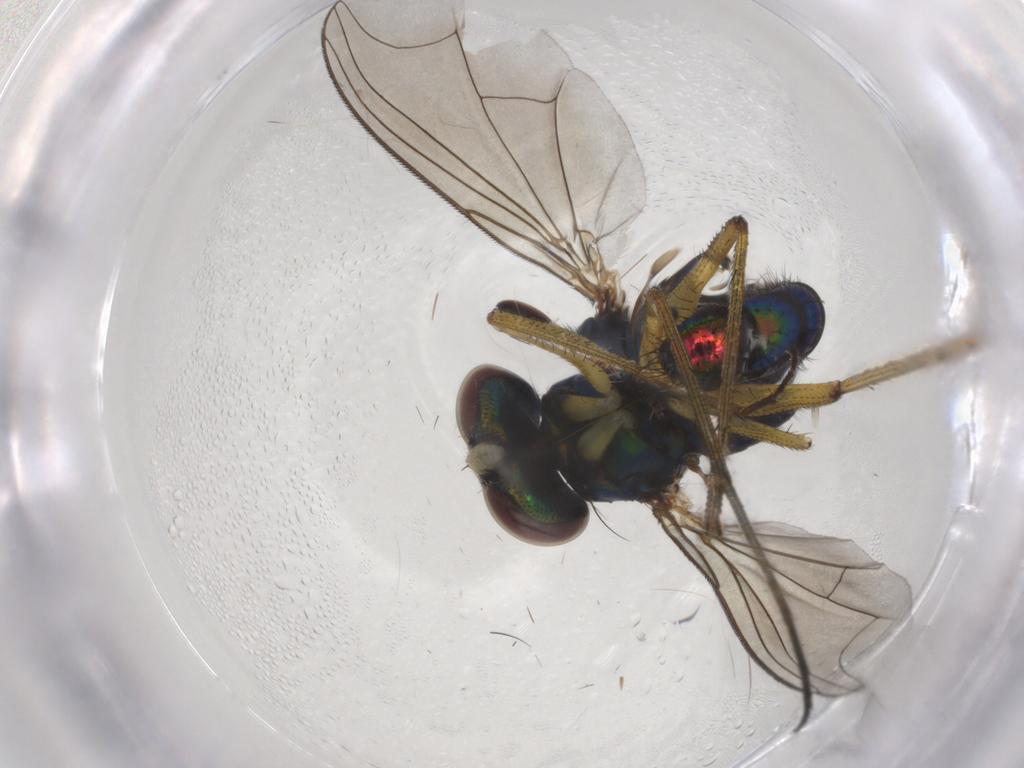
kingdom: Animalia
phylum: Arthropoda
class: Insecta
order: Diptera
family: Dolichopodidae
